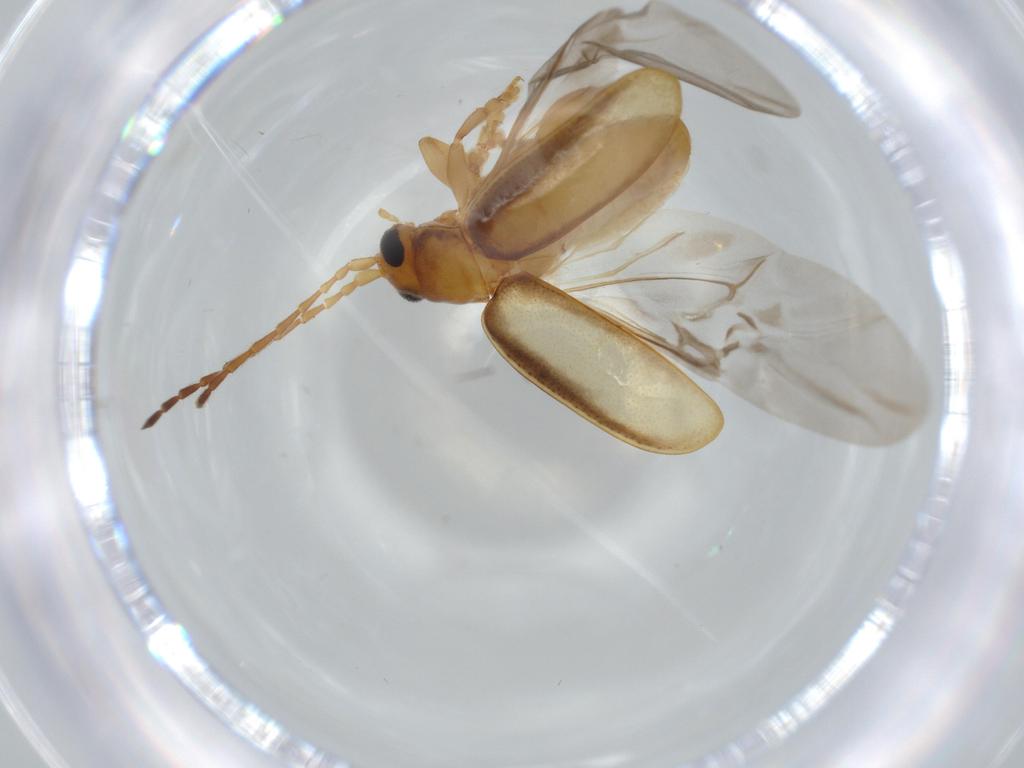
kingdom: Animalia
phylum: Arthropoda
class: Insecta
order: Coleoptera
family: Chrysomelidae
